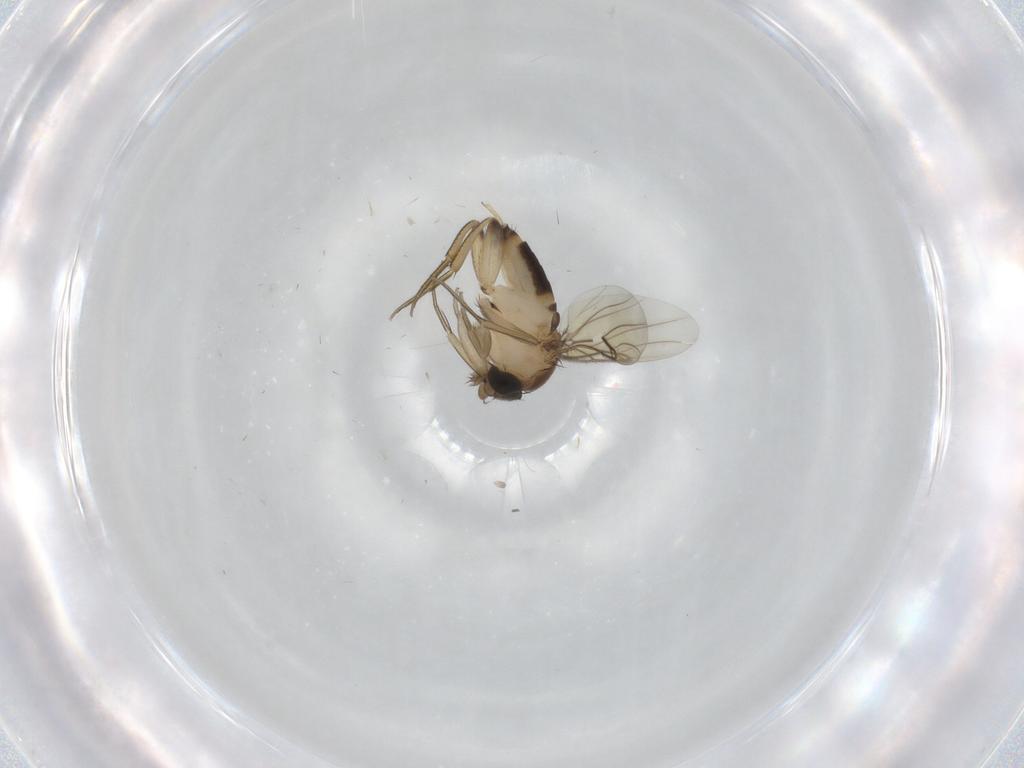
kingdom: Animalia
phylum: Arthropoda
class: Insecta
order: Diptera
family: Phoridae
